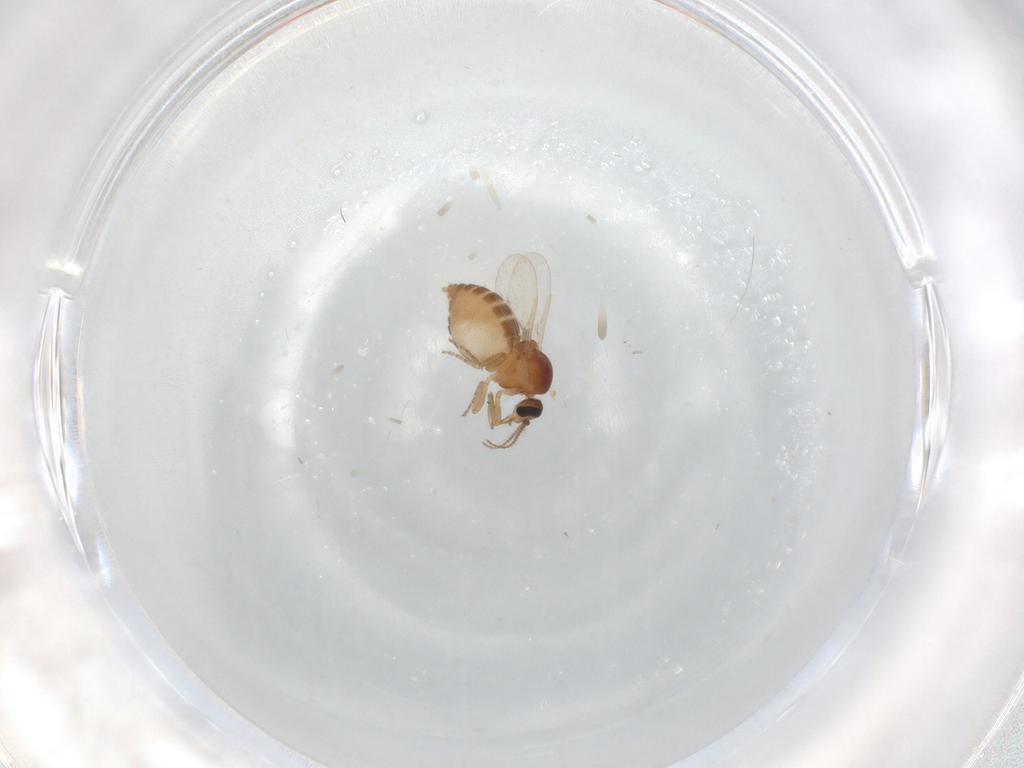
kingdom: Animalia
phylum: Arthropoda
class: Insecta
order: Diptera
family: Ceratopogonidae
